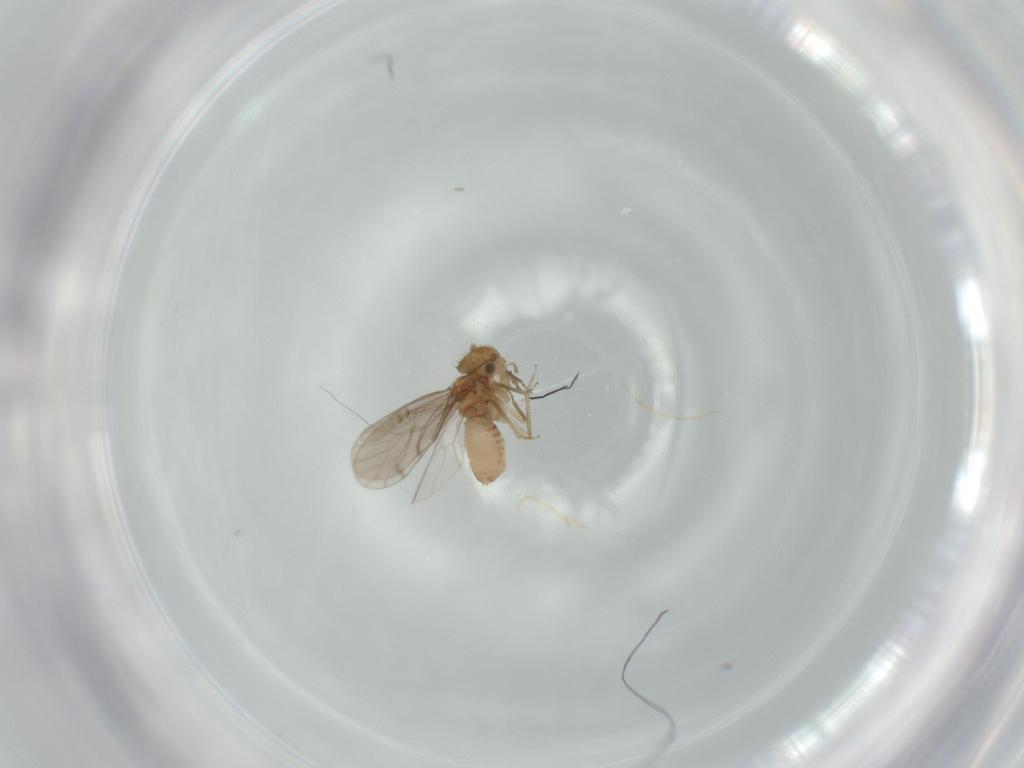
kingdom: Animalia
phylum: Arthropoda
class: Insecta
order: Psocodea
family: Ectopsocidae
